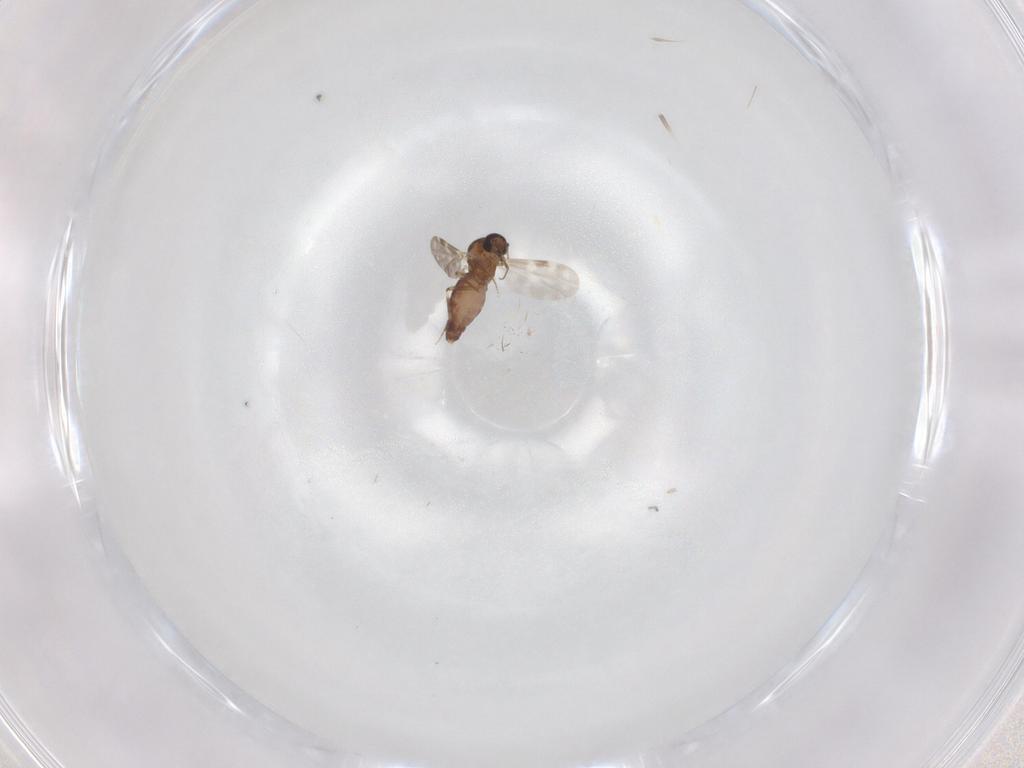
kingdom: Animalia
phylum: Arthropoda
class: Insecta
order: Diptera
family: Ceratopogonidae
